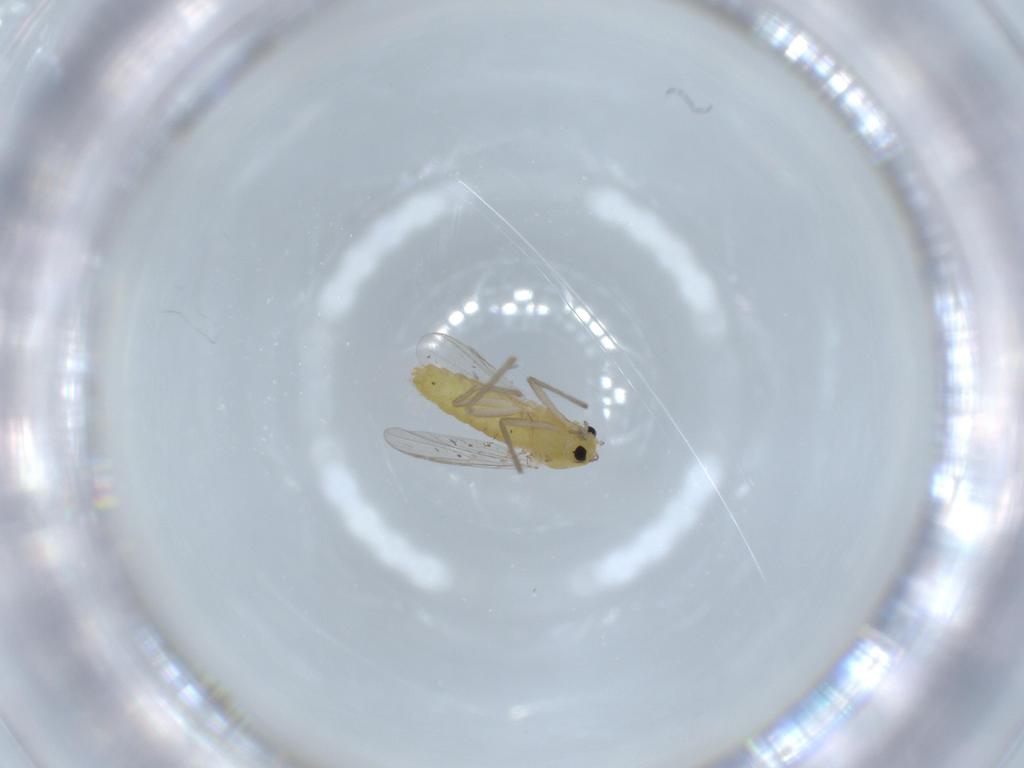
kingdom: Animalia
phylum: Arthropoda
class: Insecta
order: Diptera
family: Chironomidae
